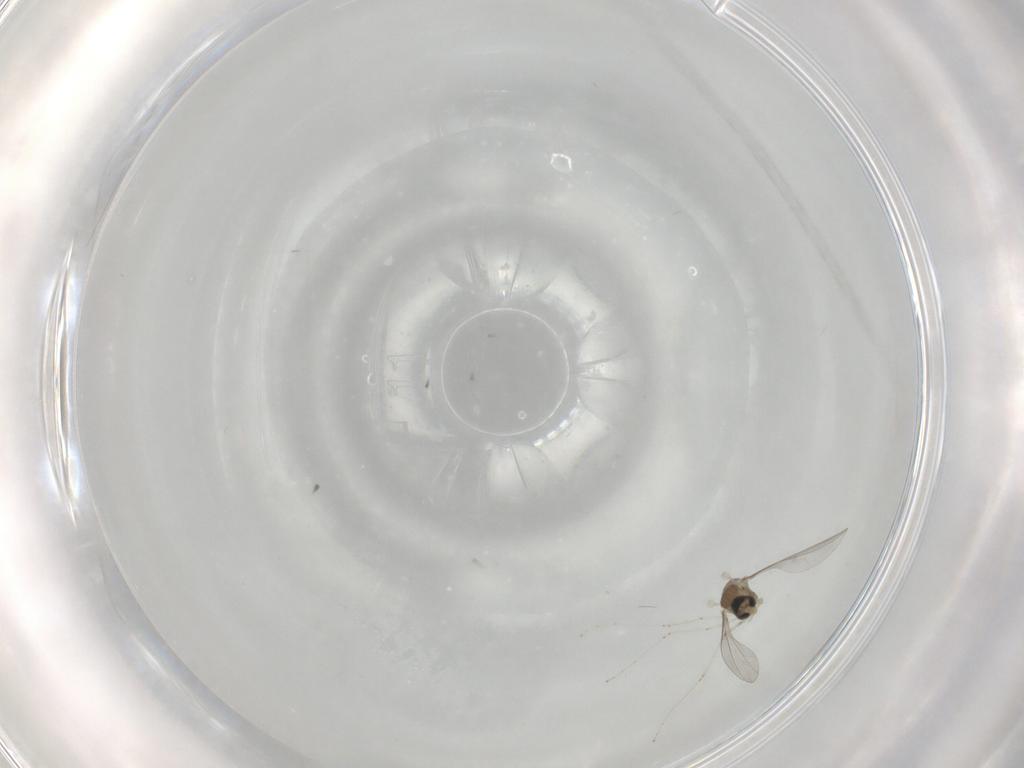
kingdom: Animalia
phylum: Arthropoda
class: Insecta
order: Diptera
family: Cecidomyiidae
